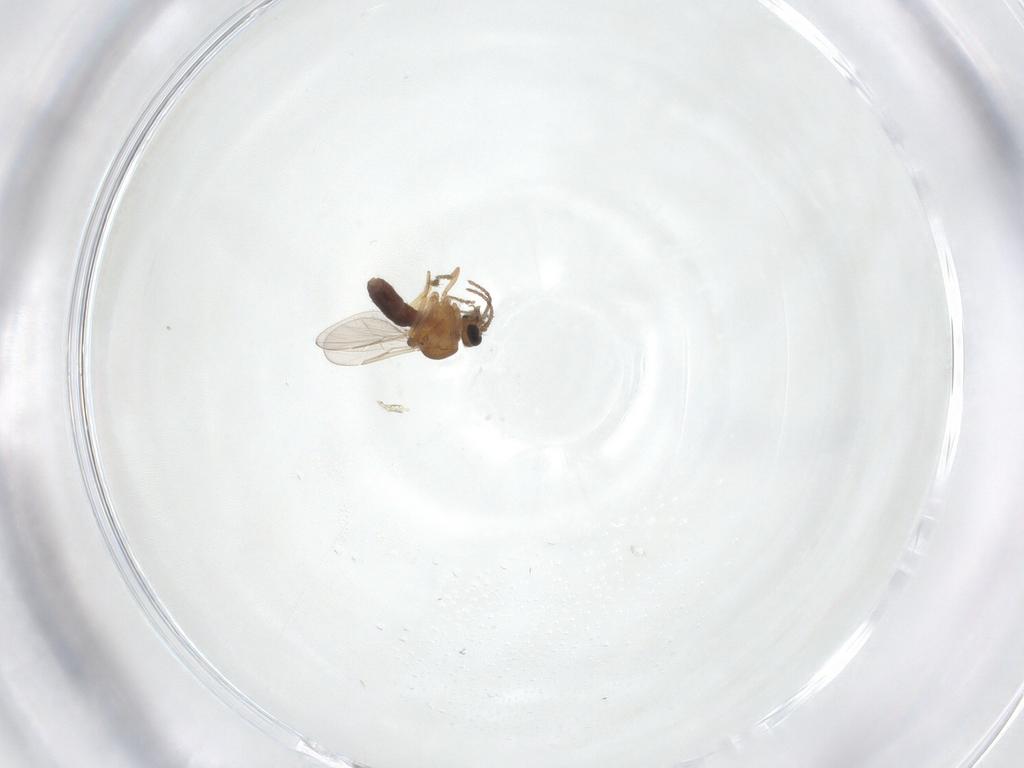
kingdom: Animalia
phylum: Arthropoda
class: Insecta
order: Diptera
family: Ceratopogonidae
